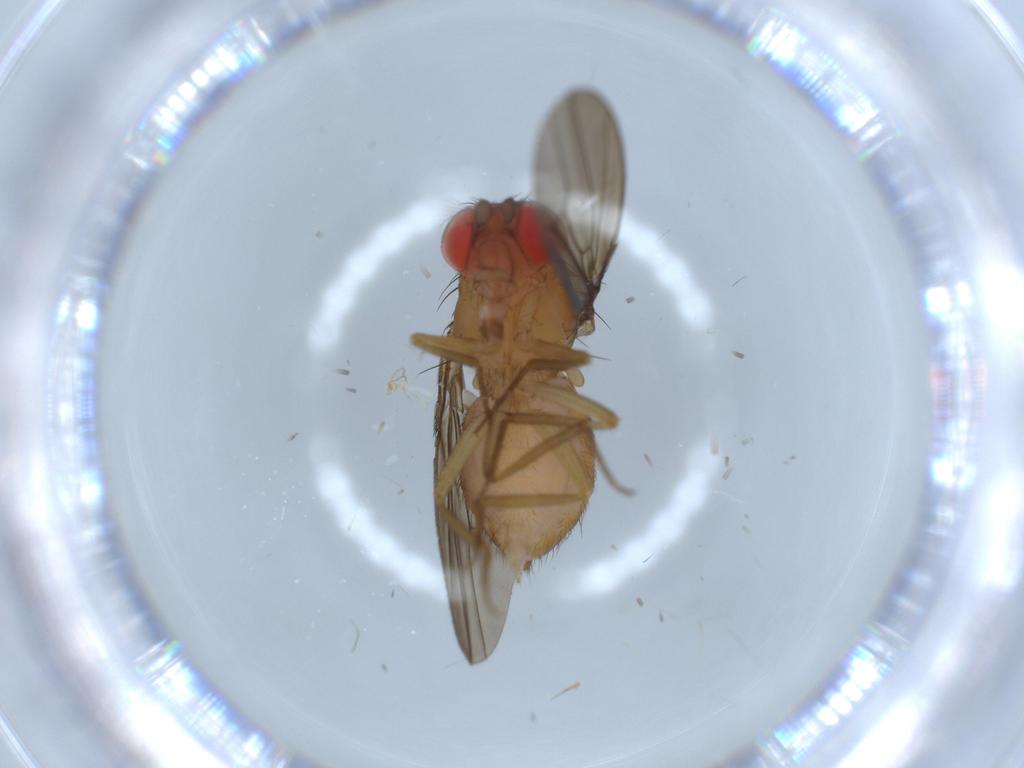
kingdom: Animalia
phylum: Arthropoda
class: Insecta
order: Diptera
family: Drosophilidae
